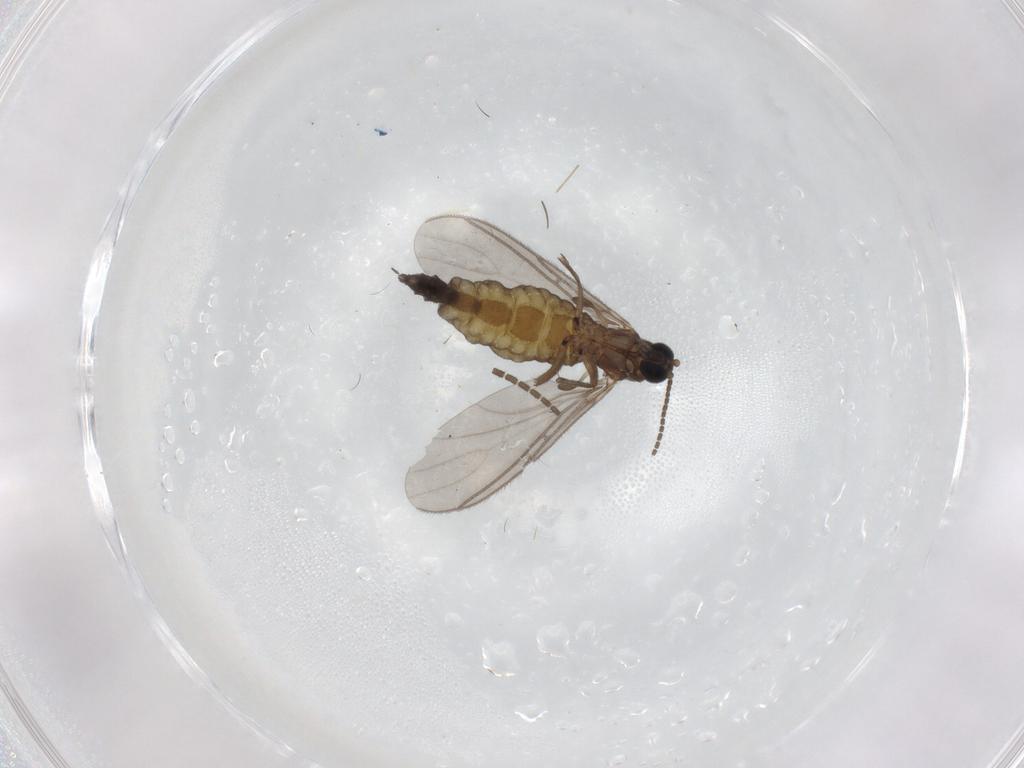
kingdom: Animalia
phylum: Arthropoda
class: Insecta
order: Diptera
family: Sciaridae
